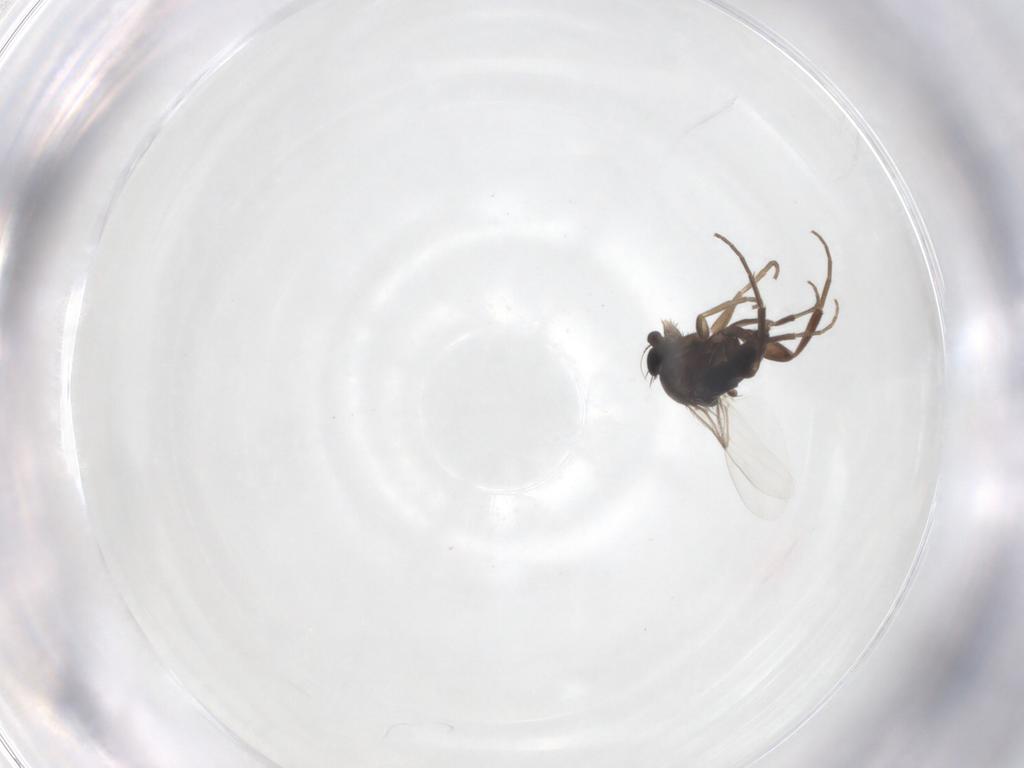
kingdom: Animalia
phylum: Arthropoda
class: Insecta
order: Diptera
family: Phoridae
